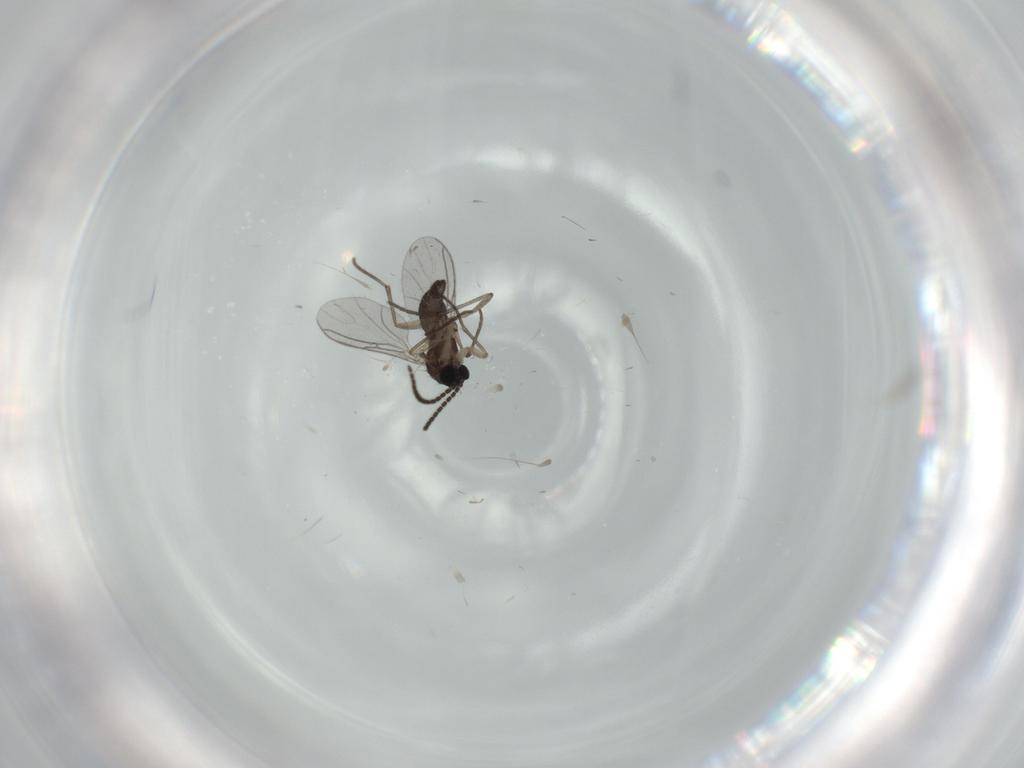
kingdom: Animalia
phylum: Arthropoda
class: Insecta
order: Diptera
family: Sciaridae
